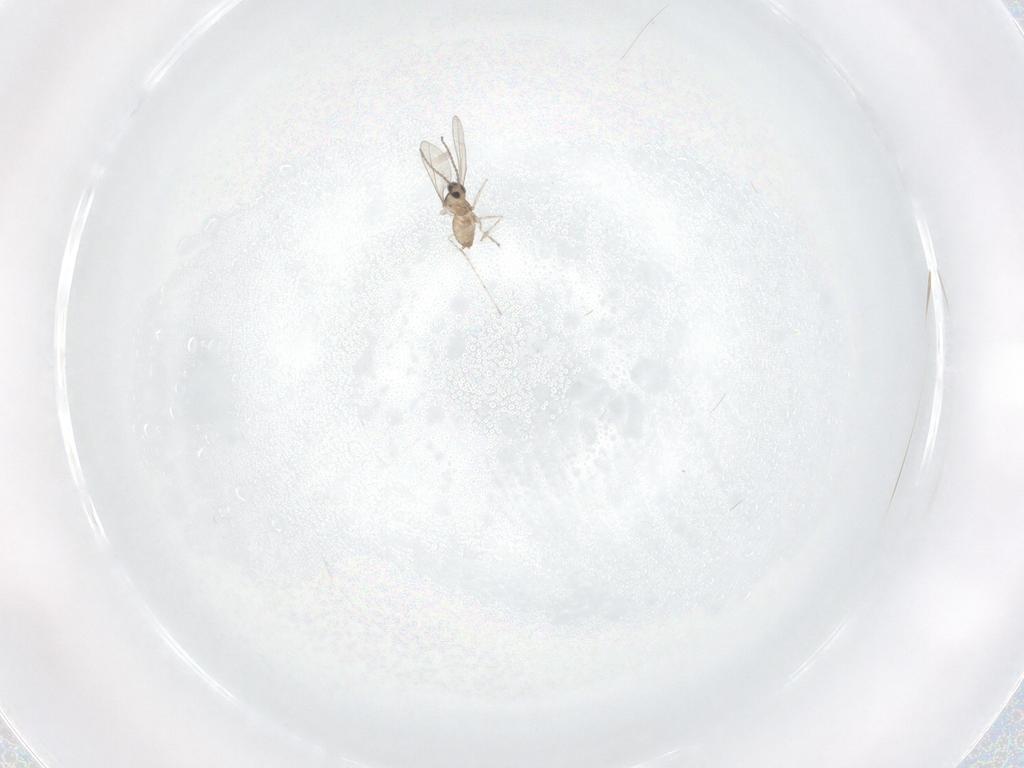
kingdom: Animalia
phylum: Arthropoda
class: Insecta
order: Diptera
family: Cecidomyiidae
